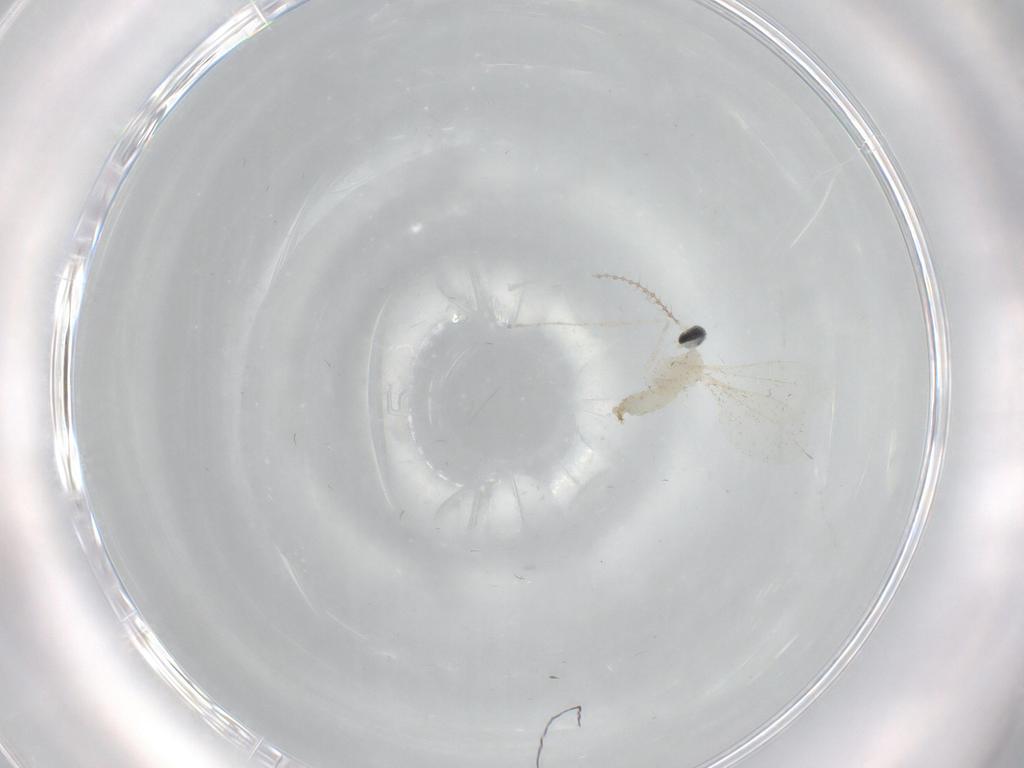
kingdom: Animalia
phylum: Arthropoda
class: Insecta
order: Diptera
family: Cecidomyiidae
